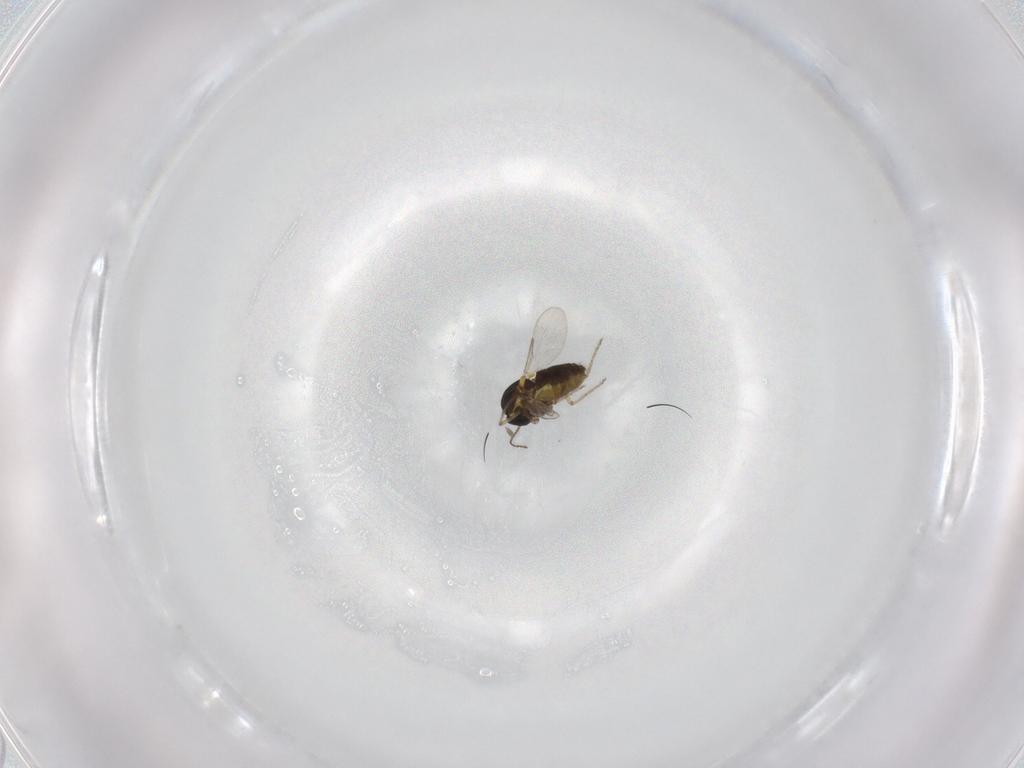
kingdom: Animalia
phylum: Arthropoda
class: Insecta
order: Diptera
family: Ceratopogonidae
